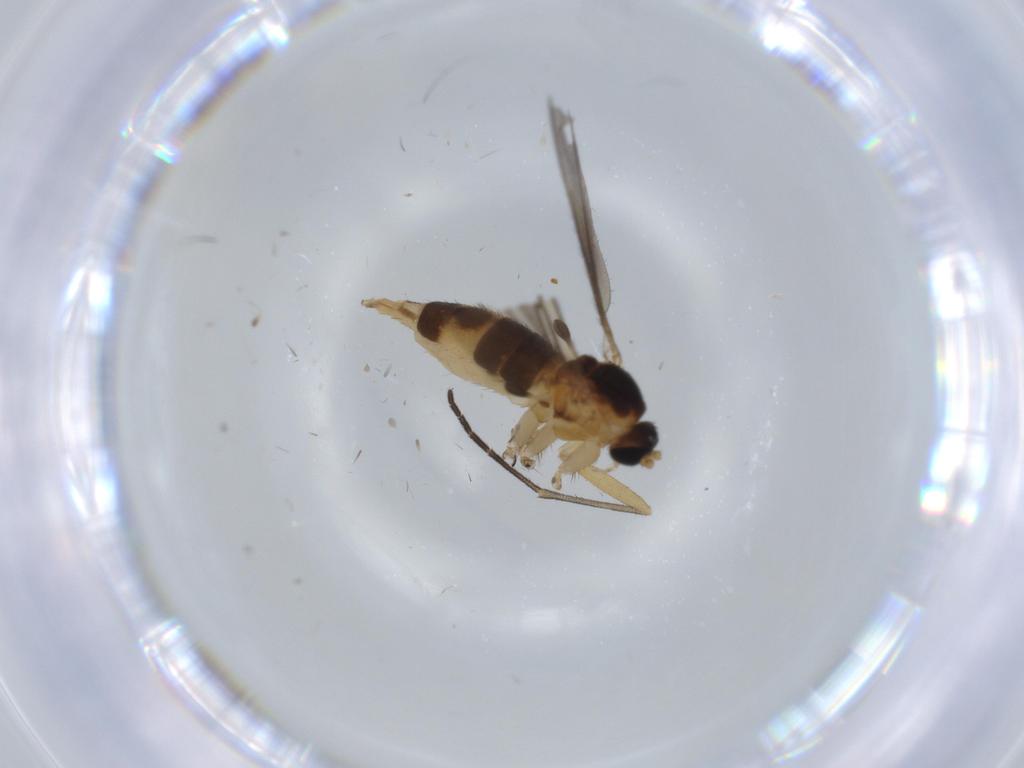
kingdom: Animalia
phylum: Arthropoda
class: Insecta
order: Diptera
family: Sciaridae
